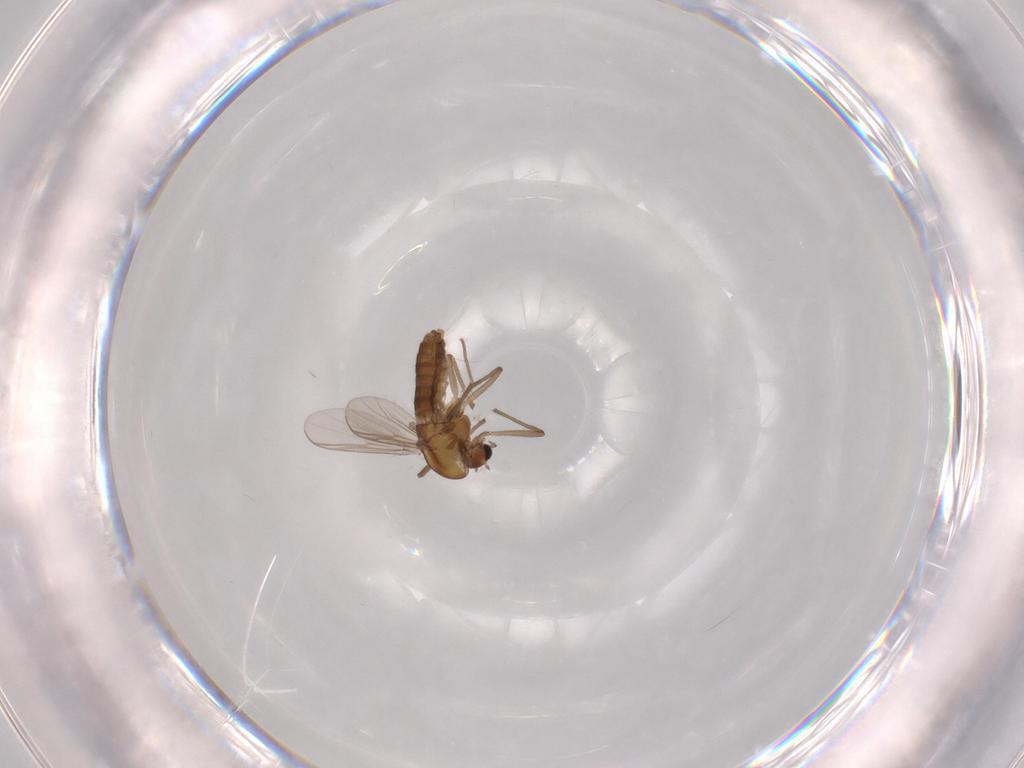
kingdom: Animalia
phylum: Arthropoda
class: Insecta
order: Diptera
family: Chironomidae
